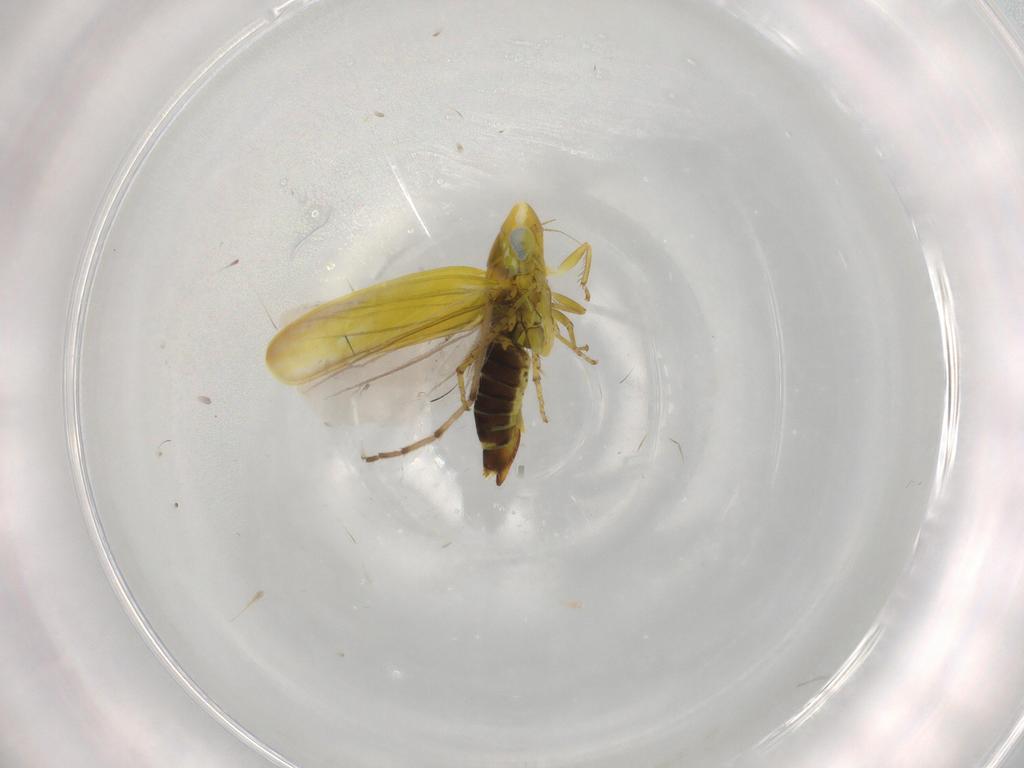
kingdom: Animalia
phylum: Arthropoda
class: Insecta
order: Hemiptera
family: Cicadellidae
